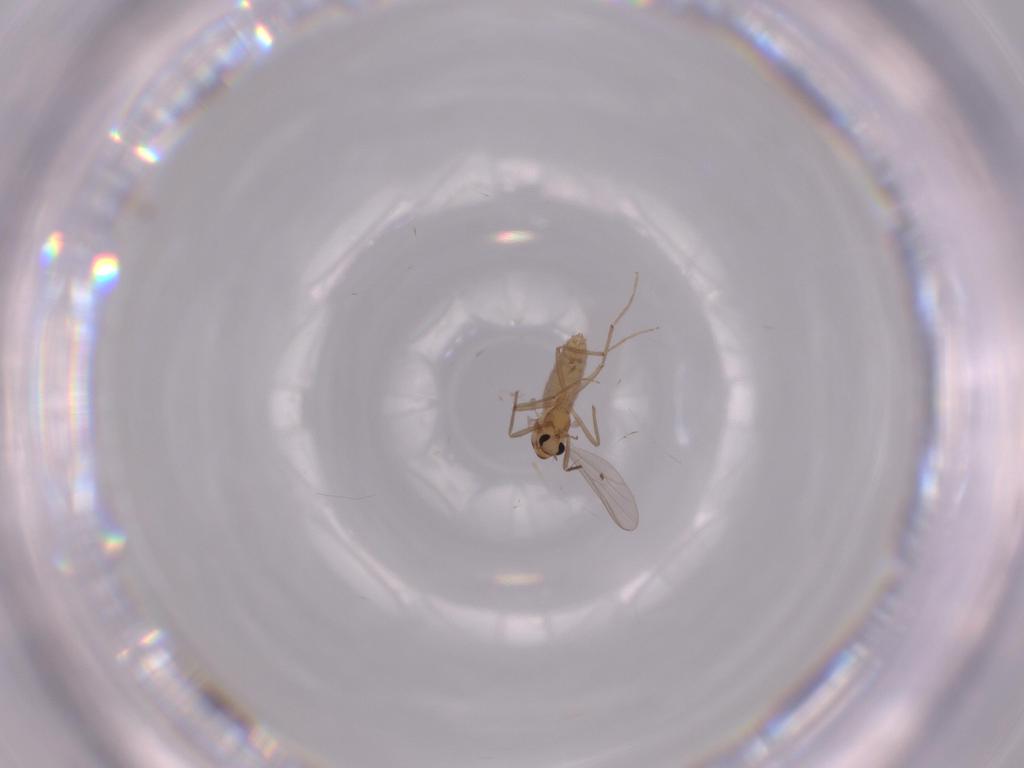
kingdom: Animalia
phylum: Arthropoda
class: Insecta
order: Diptera
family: Chironomidae
